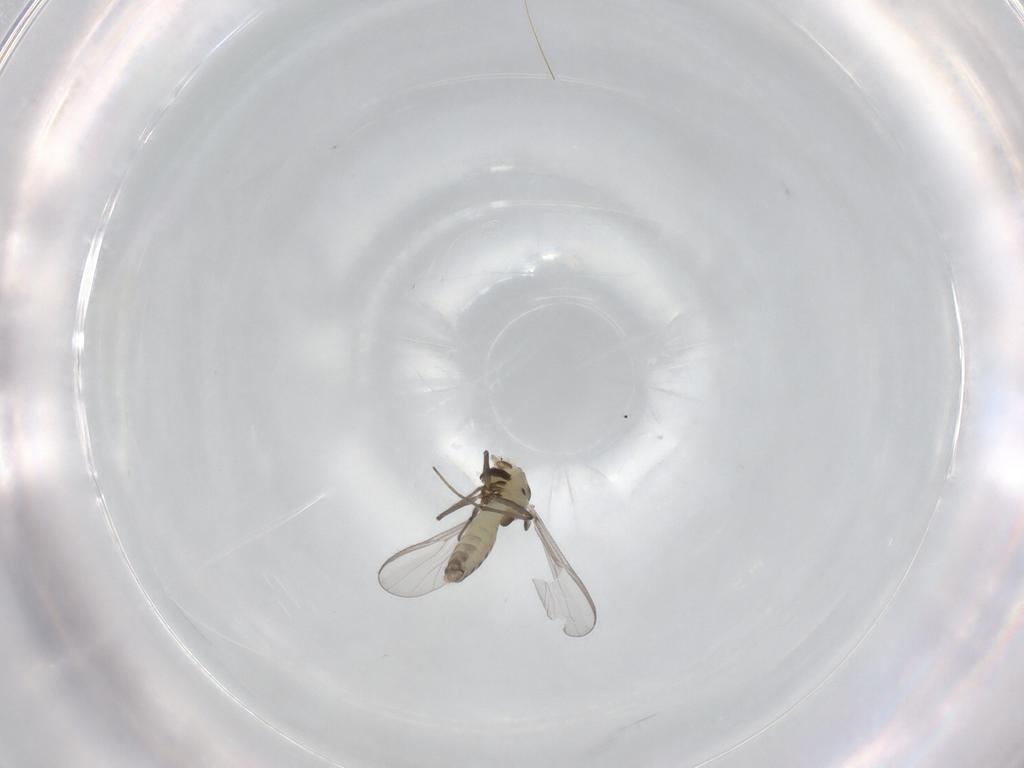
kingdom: Animalia
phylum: Arthropoda
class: Insecta
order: Diptera
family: Chironomidae
